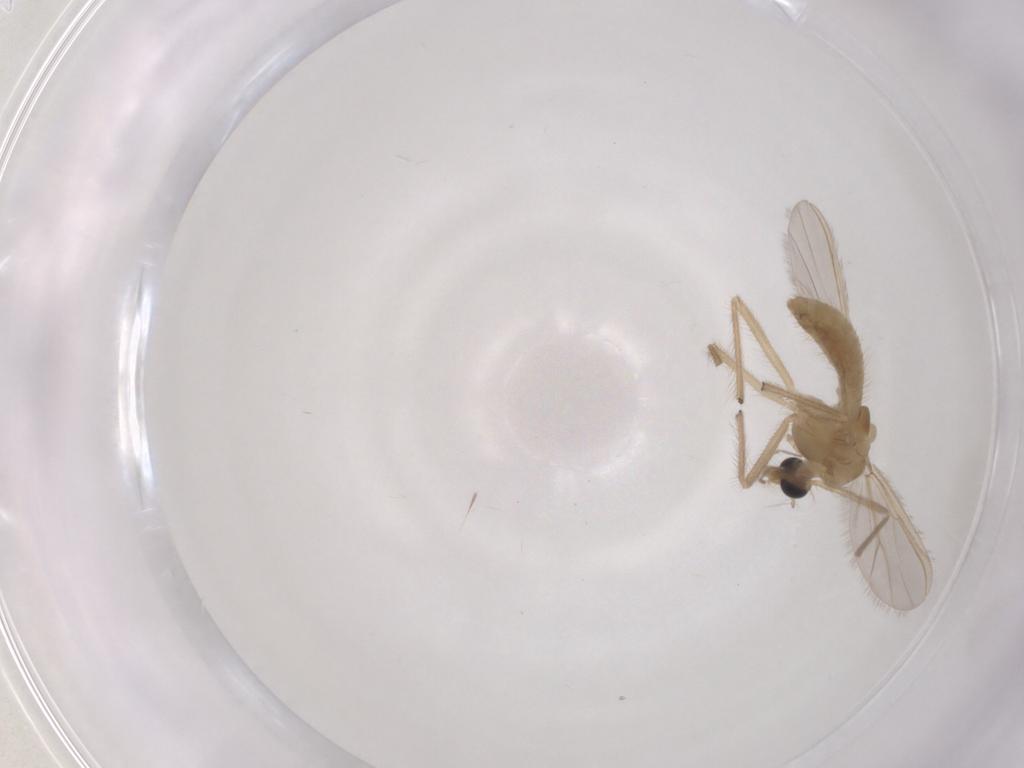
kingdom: Animalia
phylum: Arthropoda
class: Insecta
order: Diptera
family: Chironomidae
